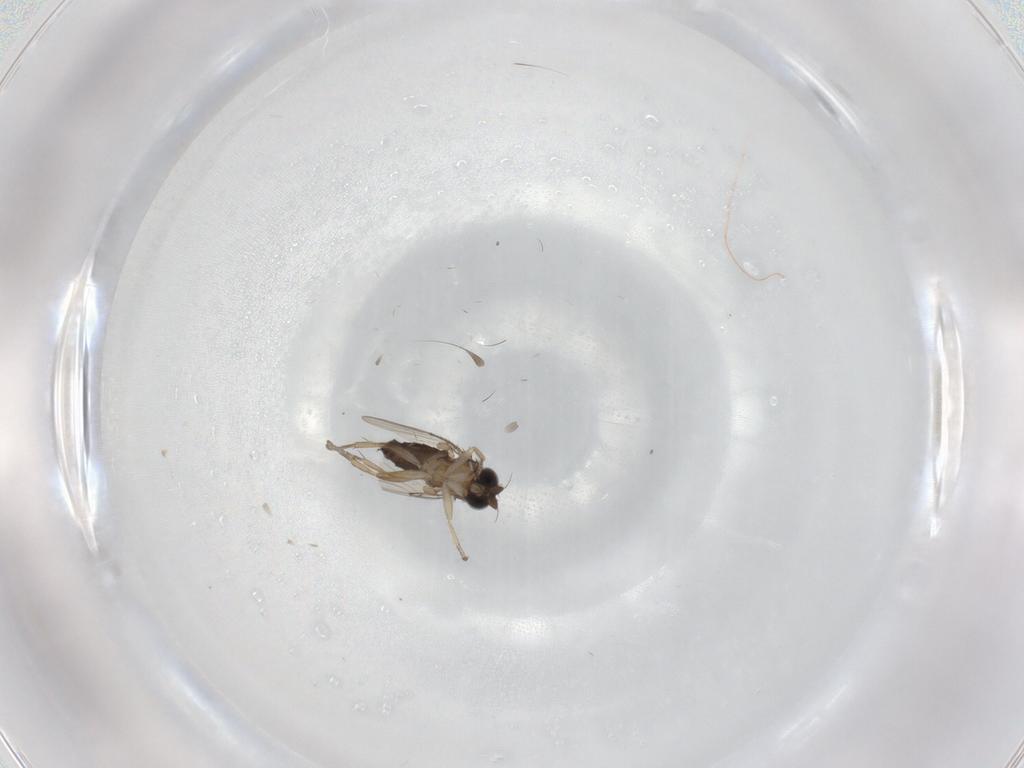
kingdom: Animalia
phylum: Arthropoda
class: Insecta
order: Diptera
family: Phoridae
